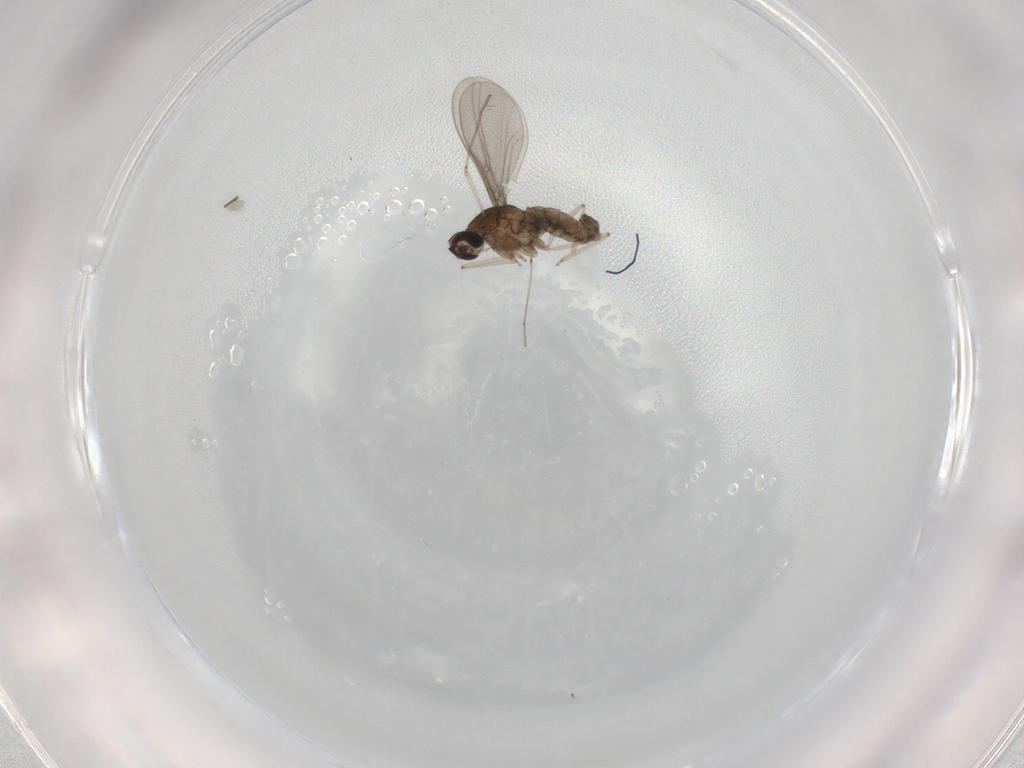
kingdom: Animalia
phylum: Arthropoda
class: Insecta
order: Diptera
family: Cecidomyiidae
